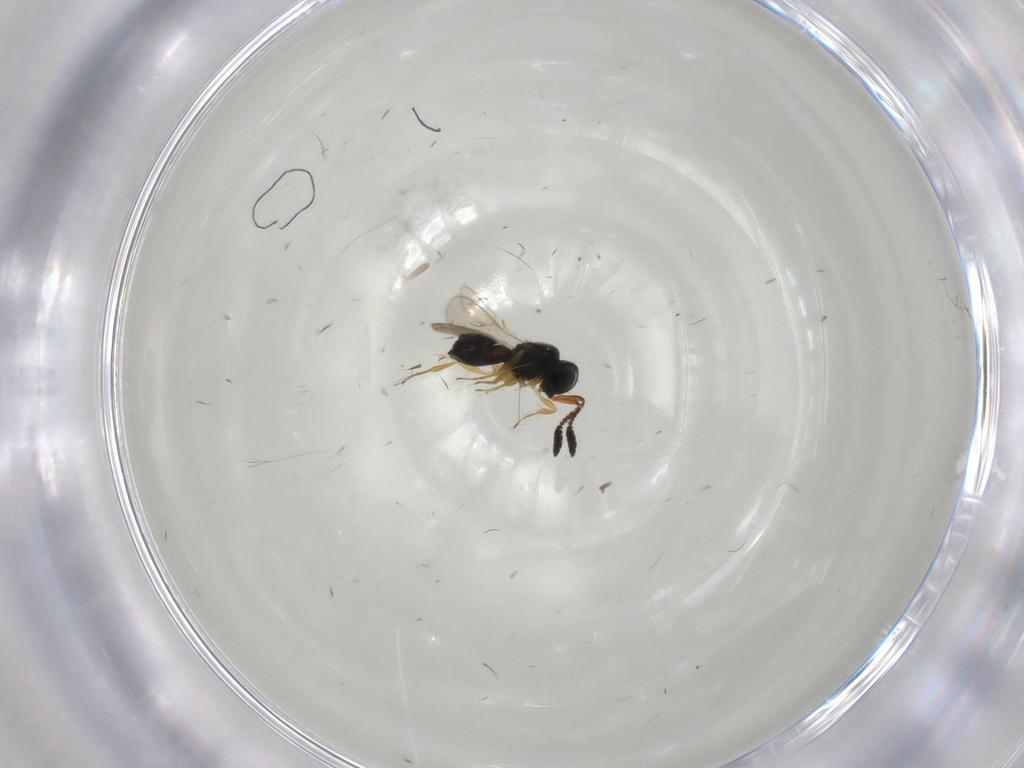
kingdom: Animalia
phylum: Arthropoda
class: Insecta
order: Hymenoptera
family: Scelionidae
